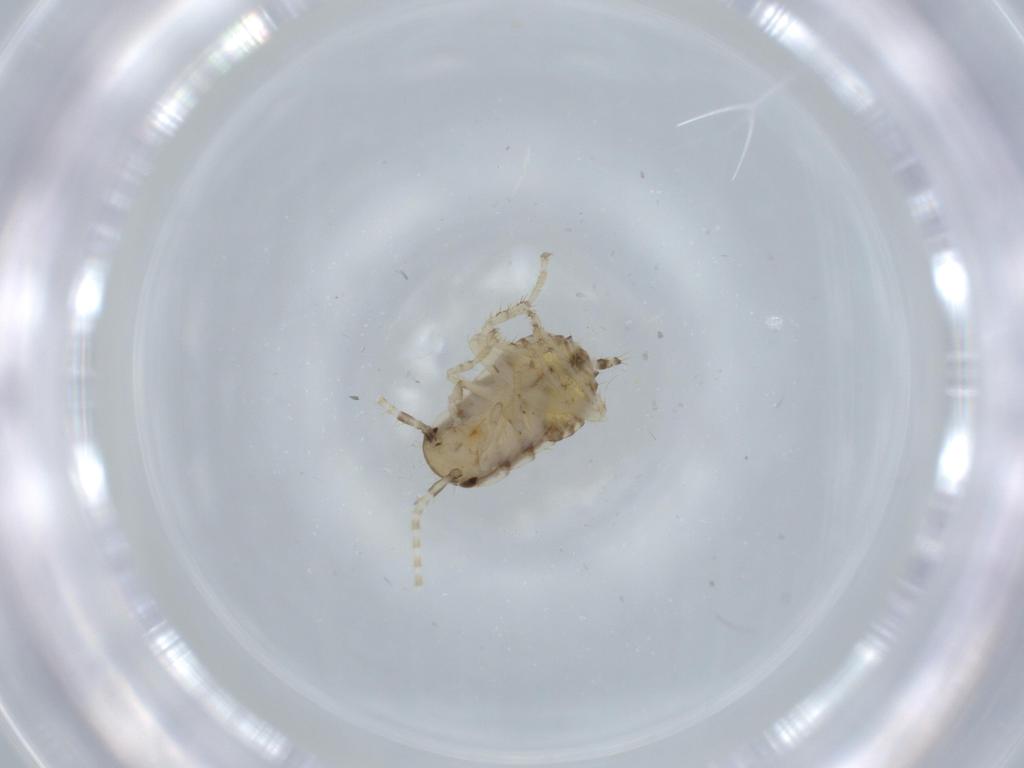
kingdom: Animalia
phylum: Arthropoda
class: Insecta
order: Blattodea
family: Ectobiidae
